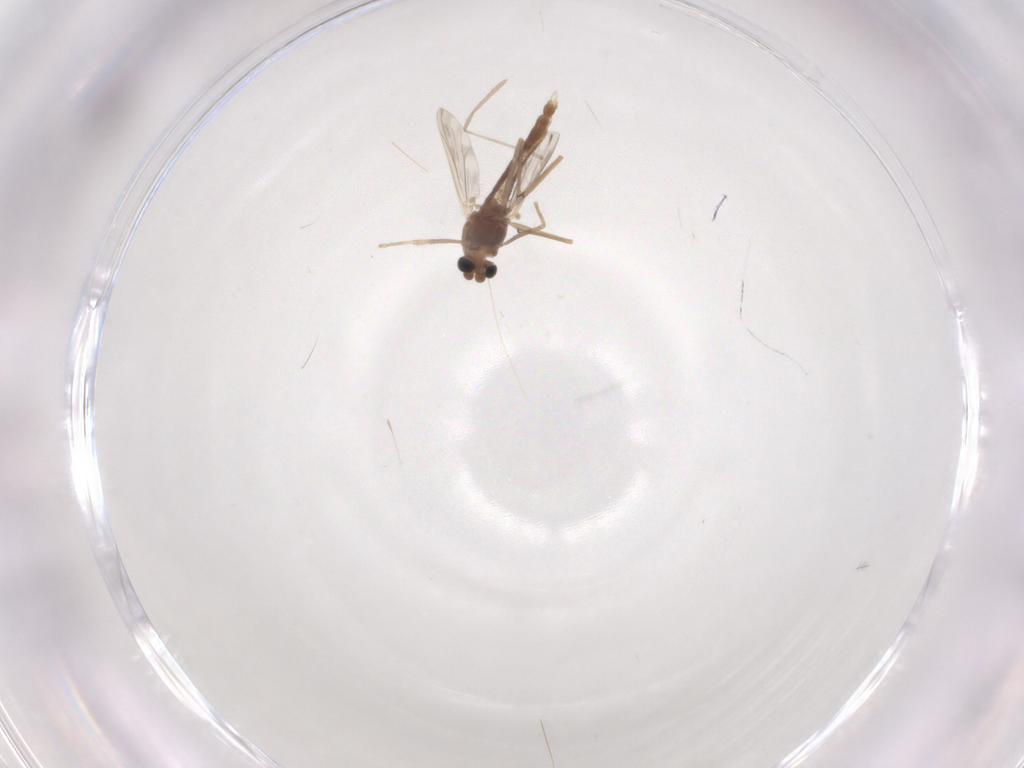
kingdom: Animalia
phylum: Arthropoda
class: Insecta
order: Diptera
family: Chironomidae
